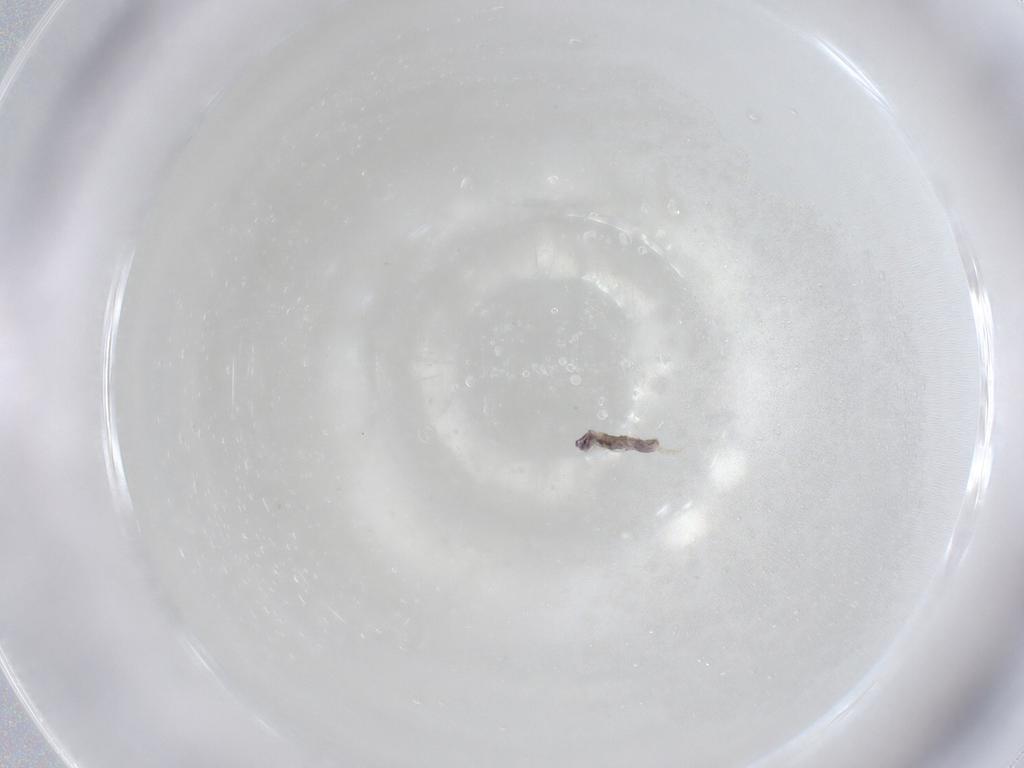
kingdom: Animalia
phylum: Arthropoda
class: Collembola
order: Entomobryomorpha
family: Entomobryidae
